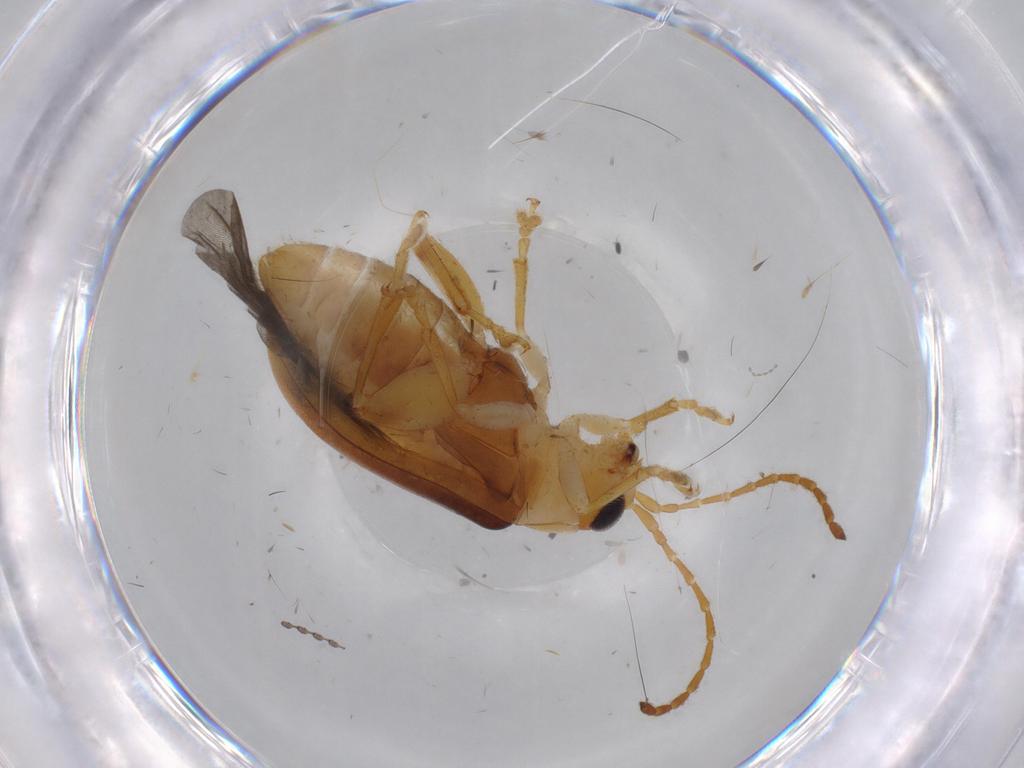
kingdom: Animalia
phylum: Arthropoda
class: Insecta
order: Coleoptera
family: Chrysomelidae
